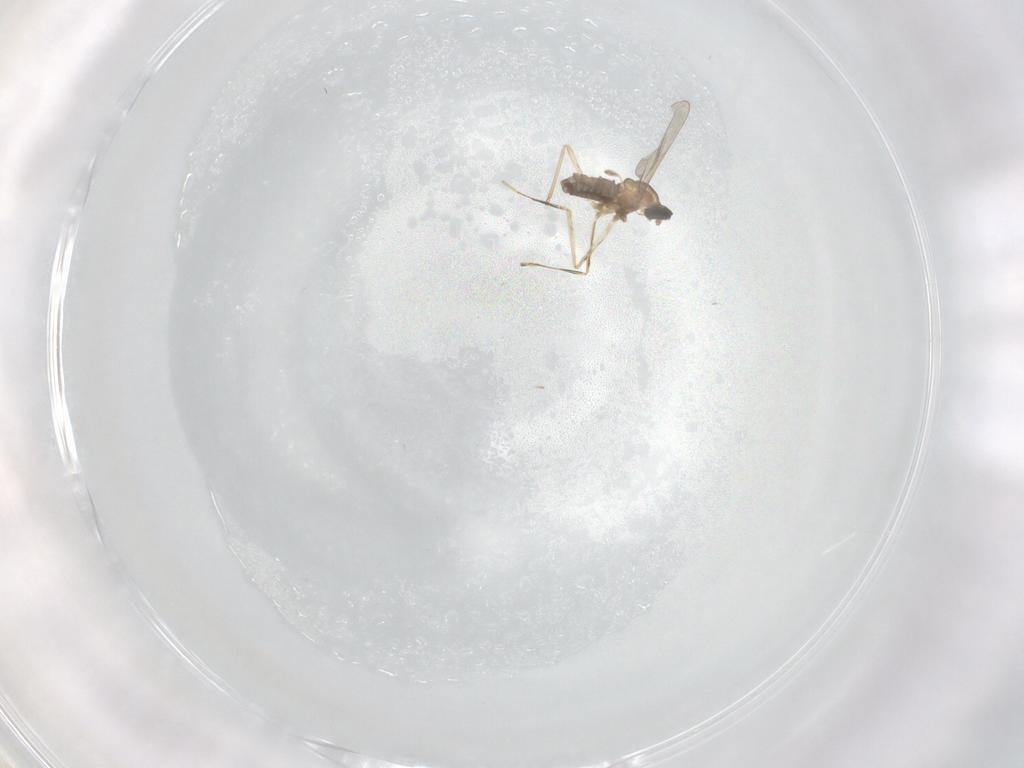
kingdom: Animalia
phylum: Arthropoda
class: Insecta
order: Diptera
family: Cecidomyiidae
